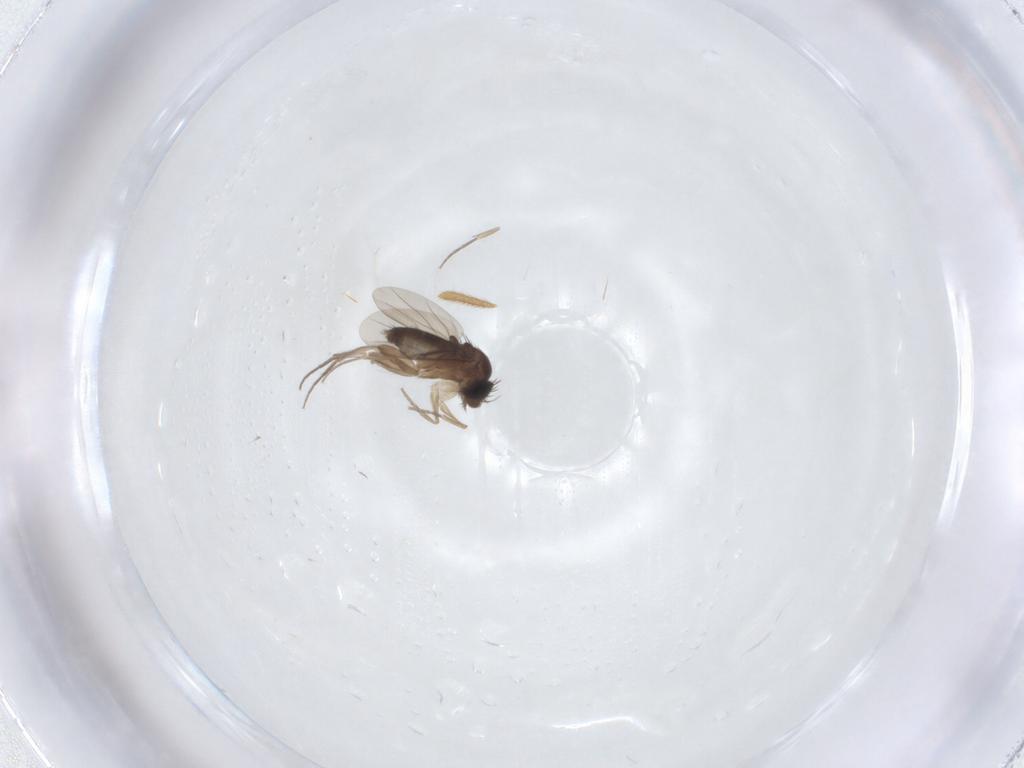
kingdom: Animalia
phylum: Arthropoda
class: Insecta
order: Diptera
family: Phoridae
